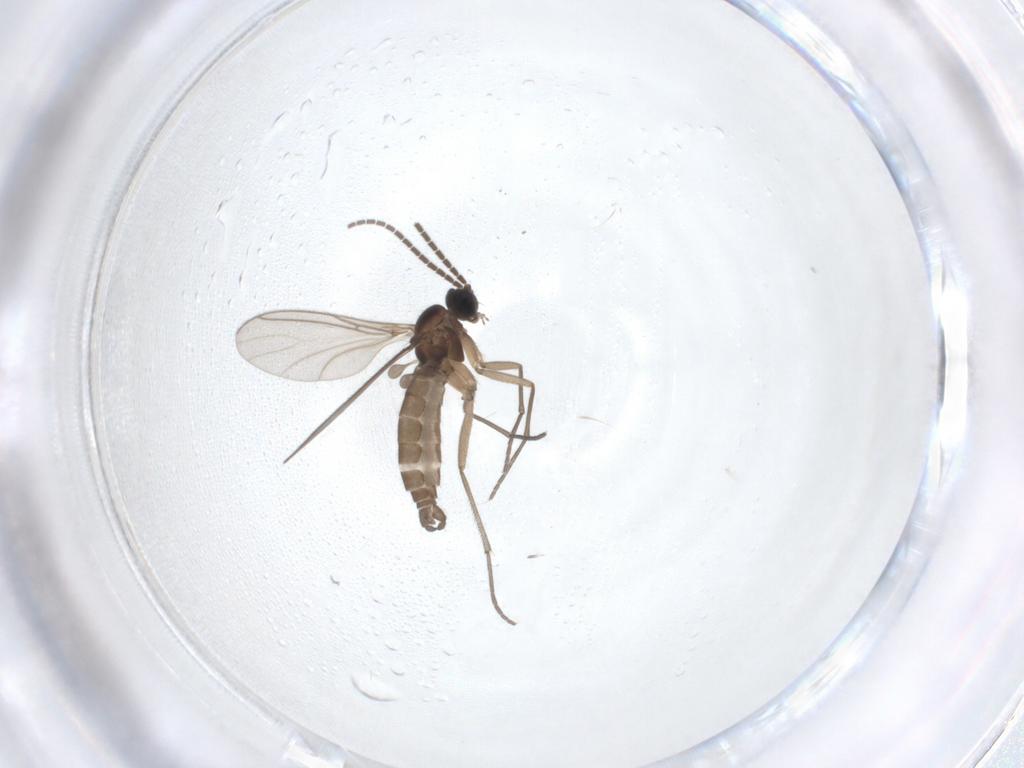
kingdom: Animalia
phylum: Arthropoda
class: Insecta
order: Diptera
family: Sciaridae
